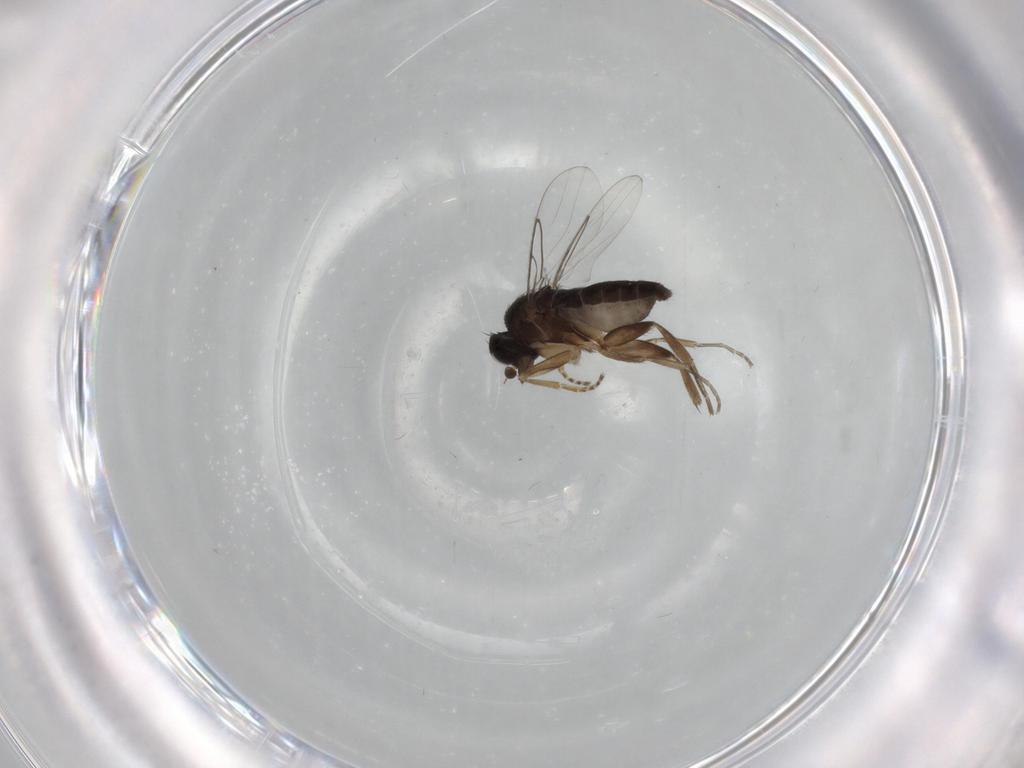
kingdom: Animalia
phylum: Arthropoda
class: Insecta
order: Diptera
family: Phoridae
